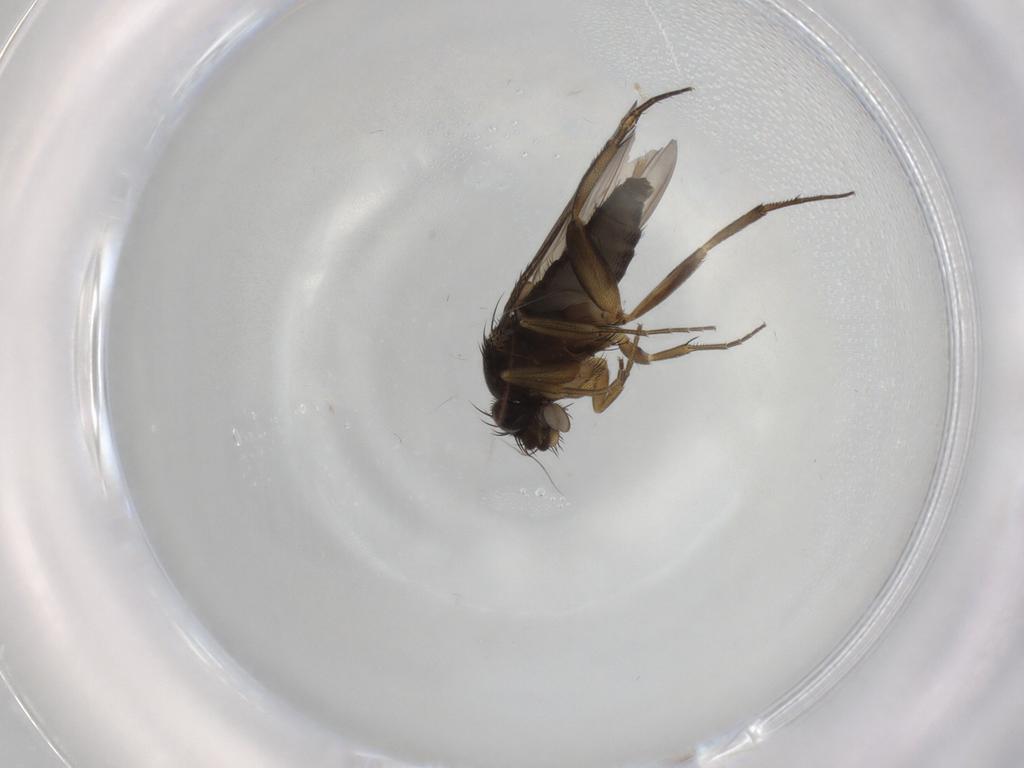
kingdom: Animalia
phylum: Arthropoda
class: Insecta
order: Diptera
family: Phoridae
